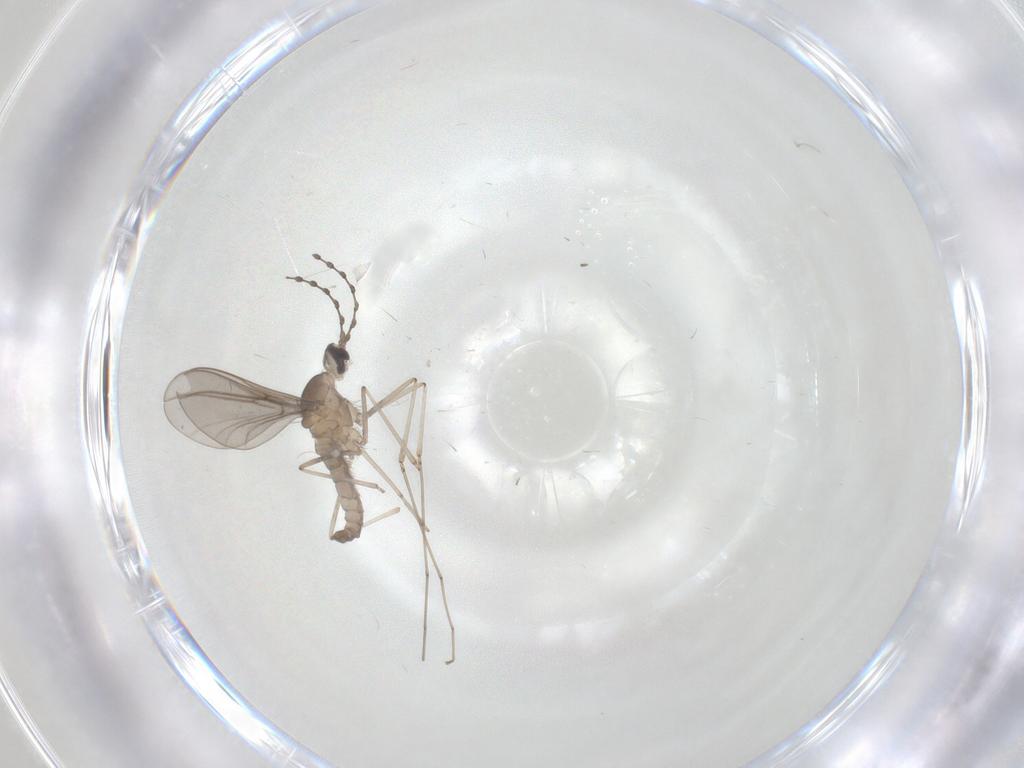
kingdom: Animalia
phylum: Arthropoda
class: Insecta
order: Diptera
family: Cecidomyiidae
